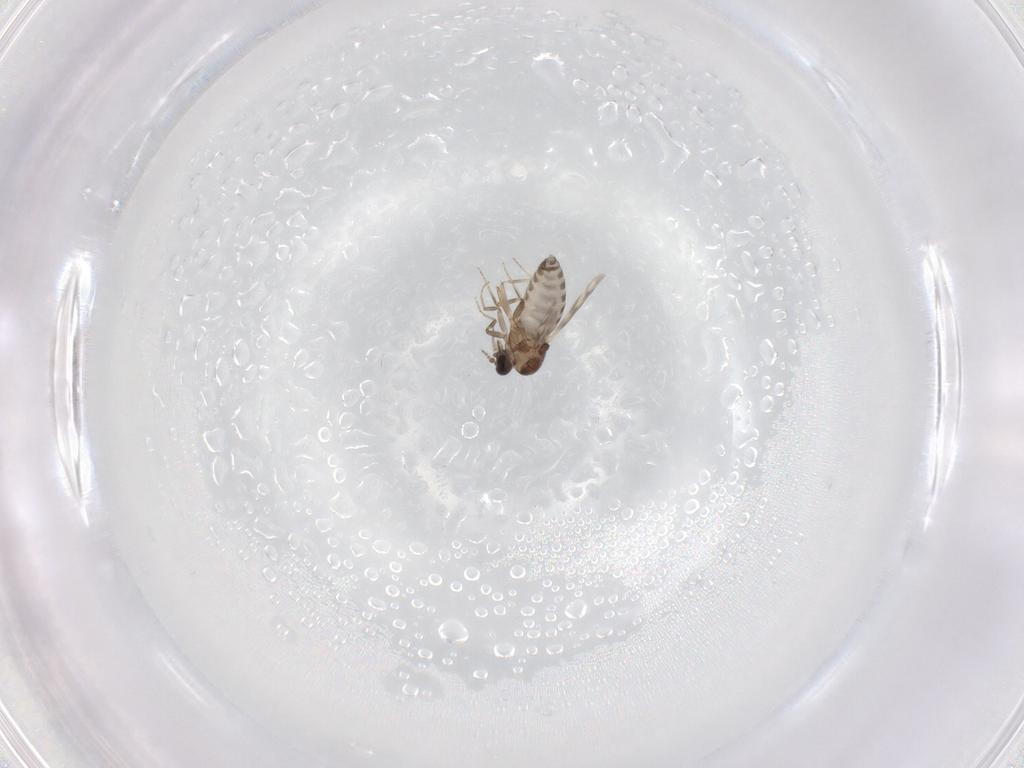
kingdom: Animalia
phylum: Arthropoda
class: Insecta
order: Diptera
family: Ceratopogonidae
